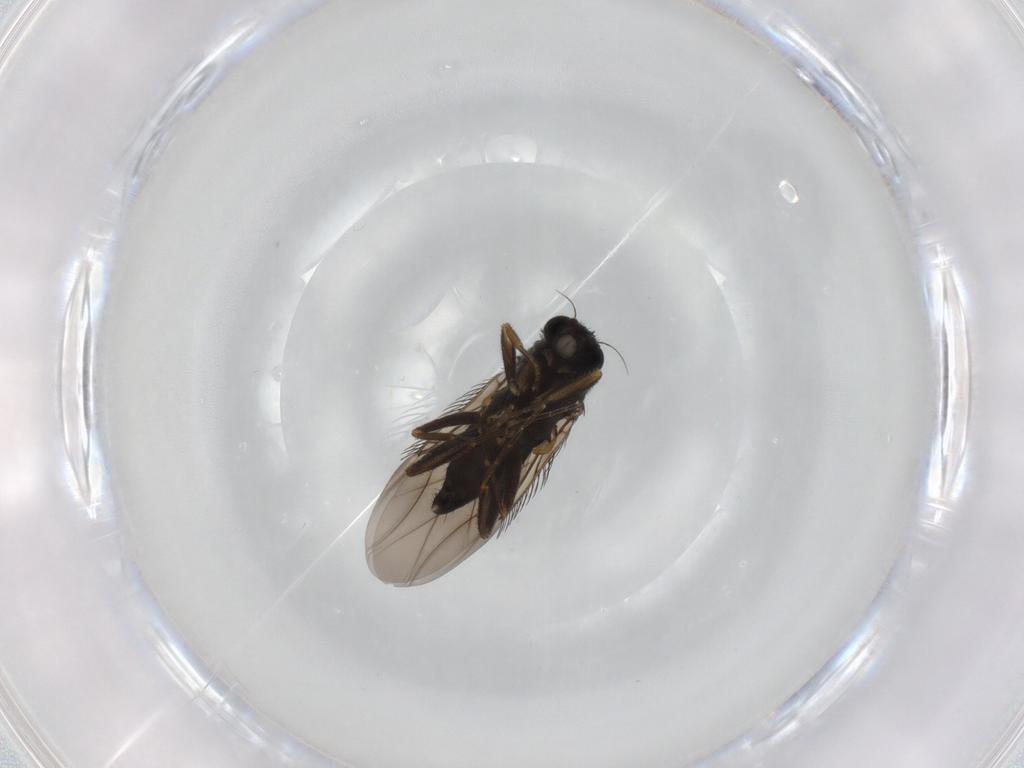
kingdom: Animalia
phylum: Arthropoda
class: Insecta
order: Diptera
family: Phoridae
